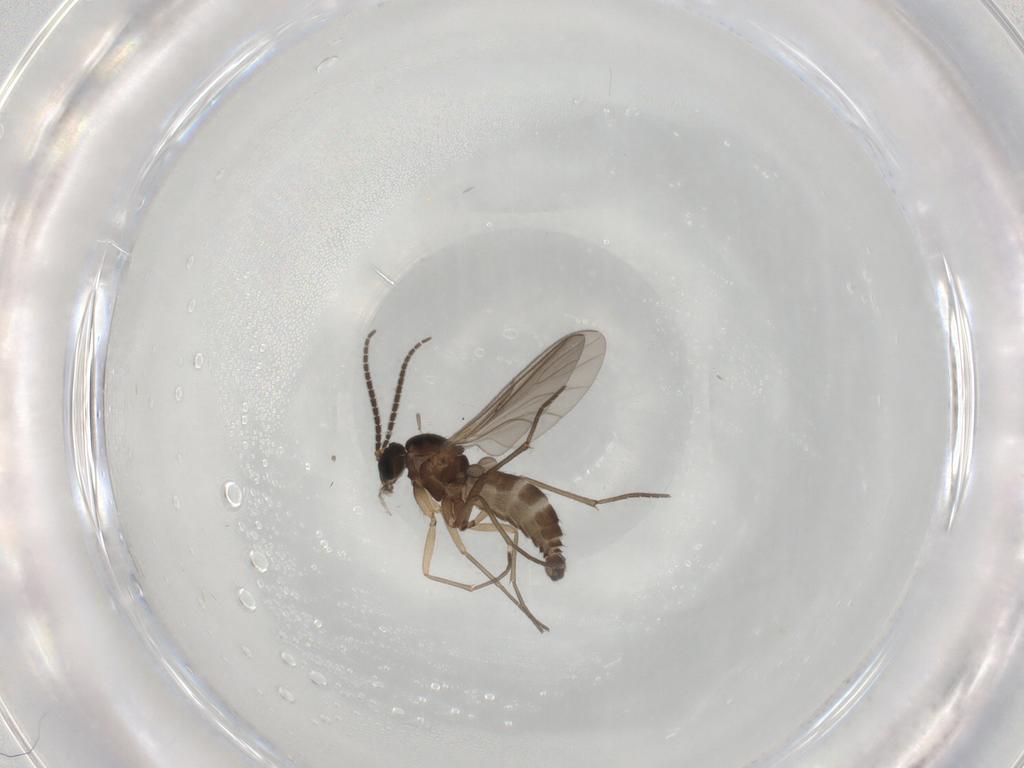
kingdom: Animalia
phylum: Arthropoda
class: Insecta
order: Diptera
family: Sciaridae
